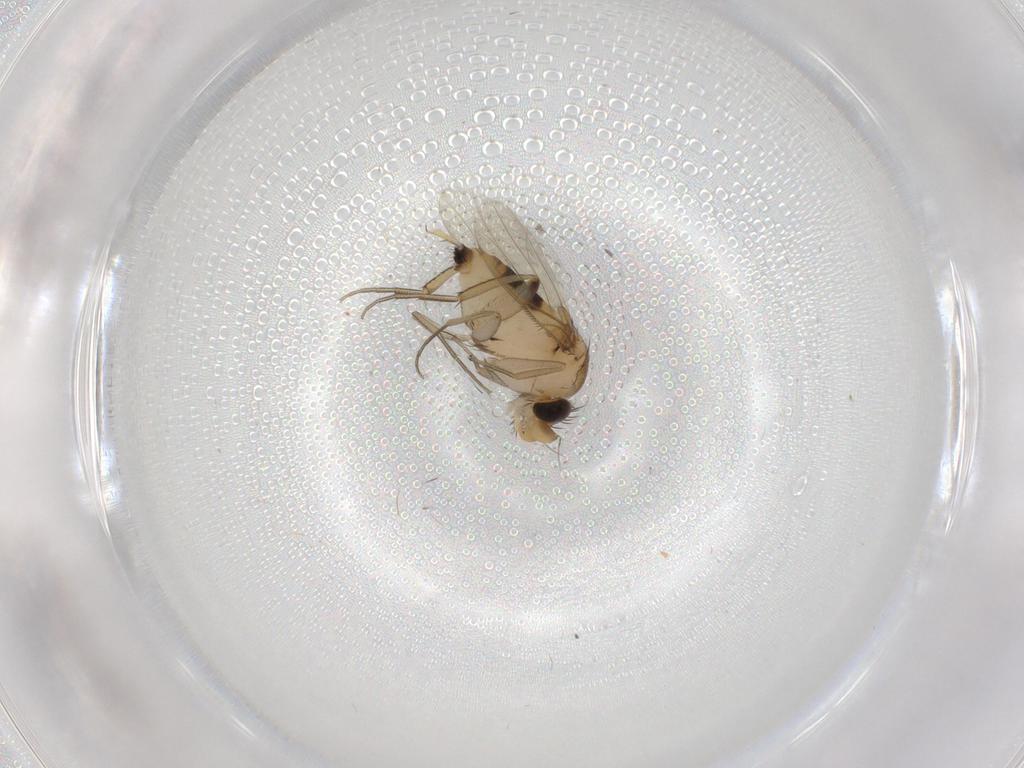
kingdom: Animalia
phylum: Arthropoda
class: Insecta
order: Diptera
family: Phoridae
